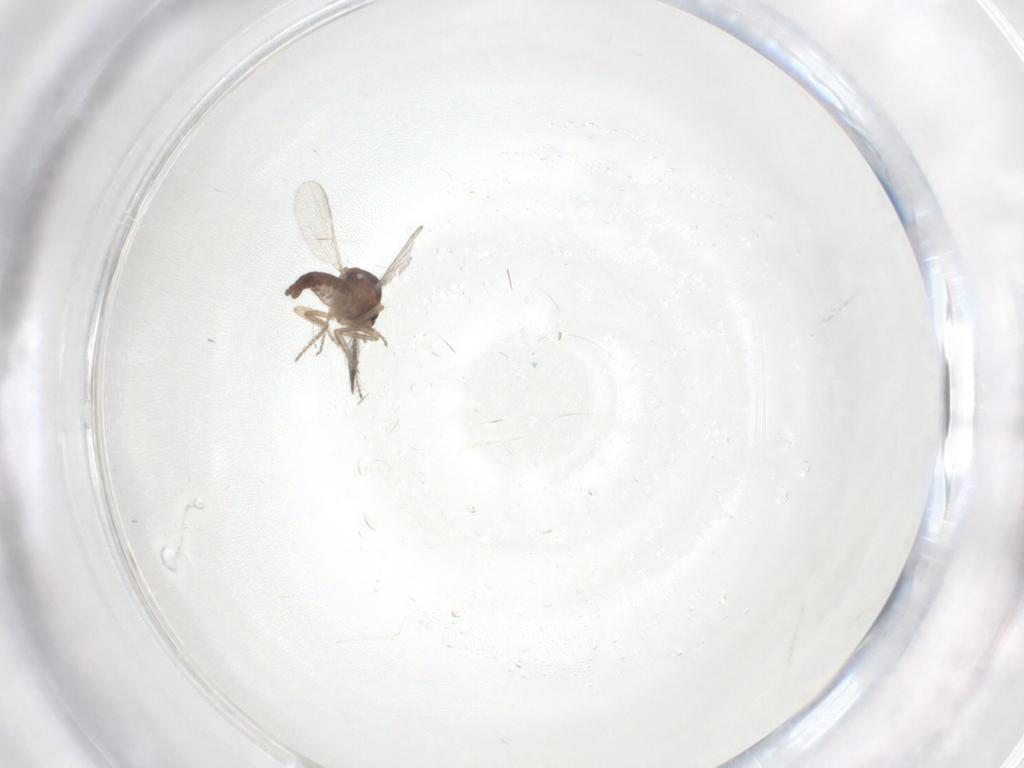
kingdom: Animalia
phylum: Arthropoda
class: Insecta
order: Diptera
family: Ceratopogonidae
